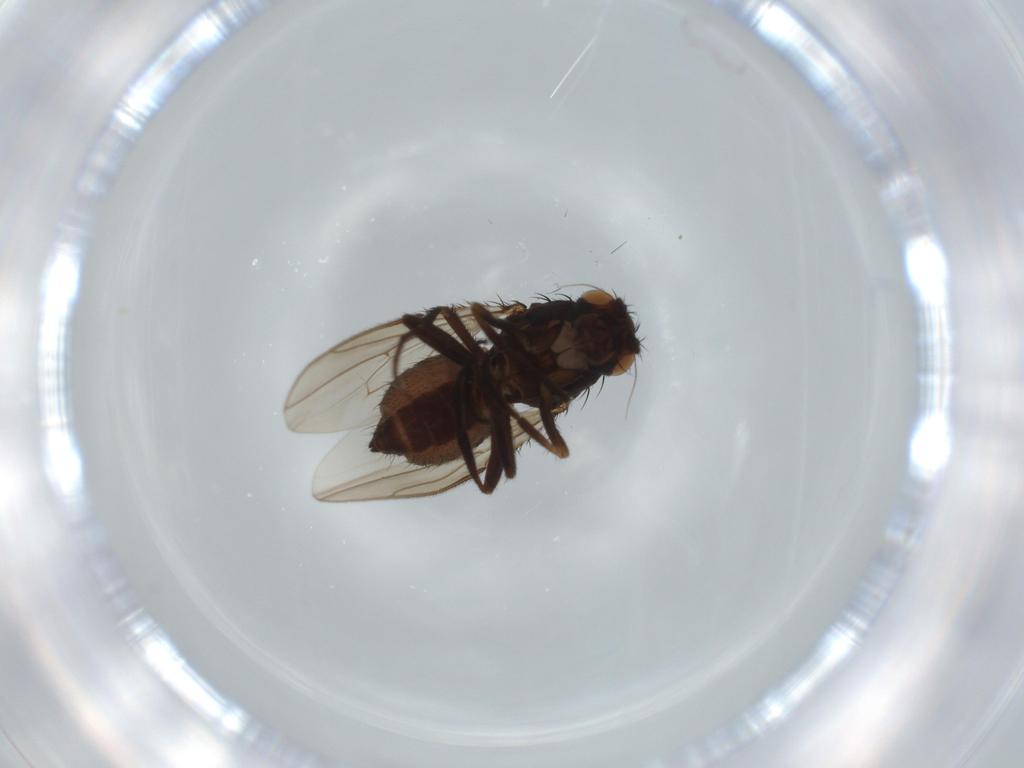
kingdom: Animalia
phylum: Arthropoda
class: Insecta
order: Diptera
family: Sphaeroceridae
